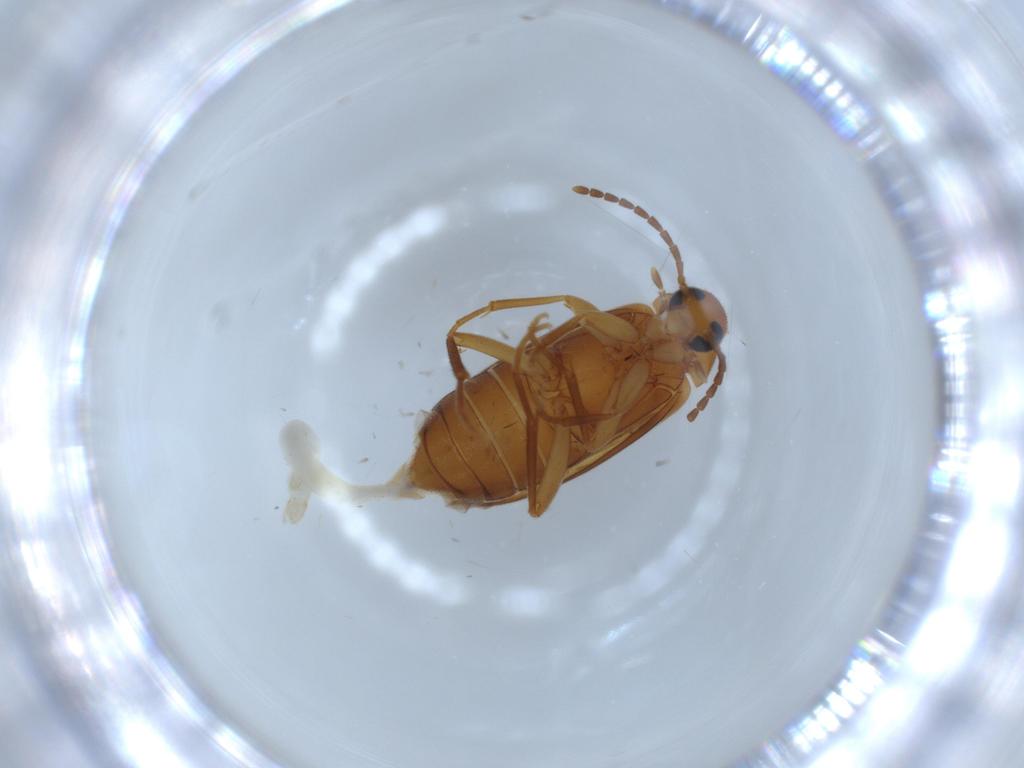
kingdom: Animalia
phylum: Arthropoda
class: Insecta
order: Coleoptera
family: Scraptiidae
